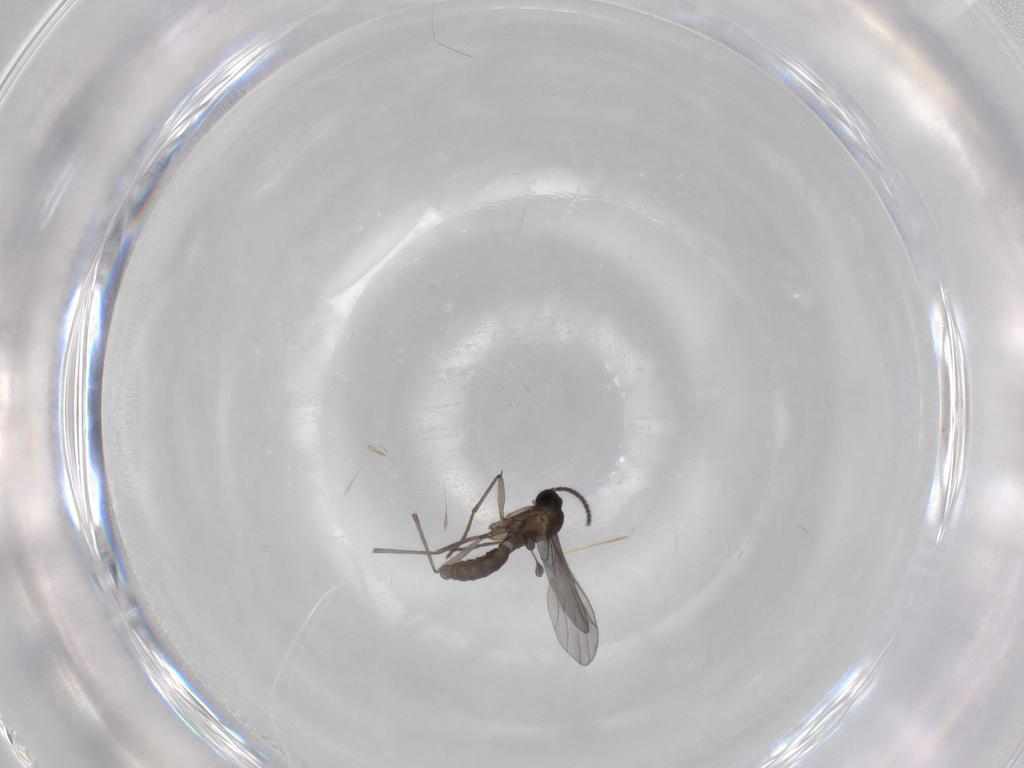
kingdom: Animalia
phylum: Arthropoda
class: Insecta
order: Diptera
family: Sciaridae
